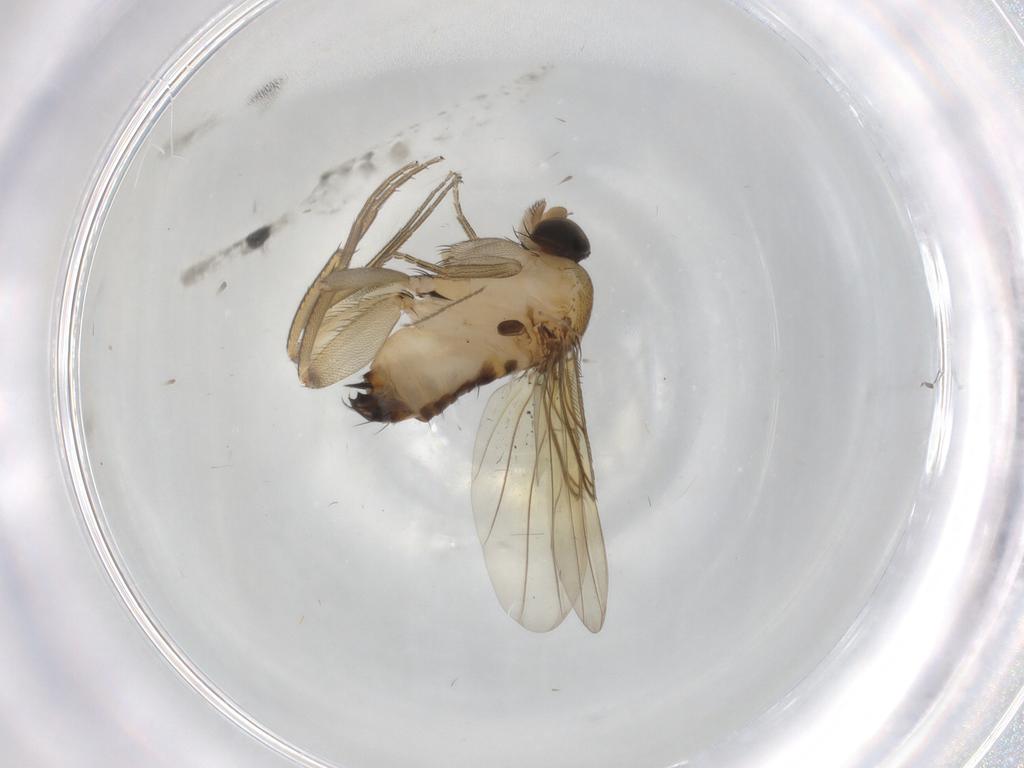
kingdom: Animalia
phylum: Arthropoda
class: Insecta
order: Diptera
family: Phoridae
